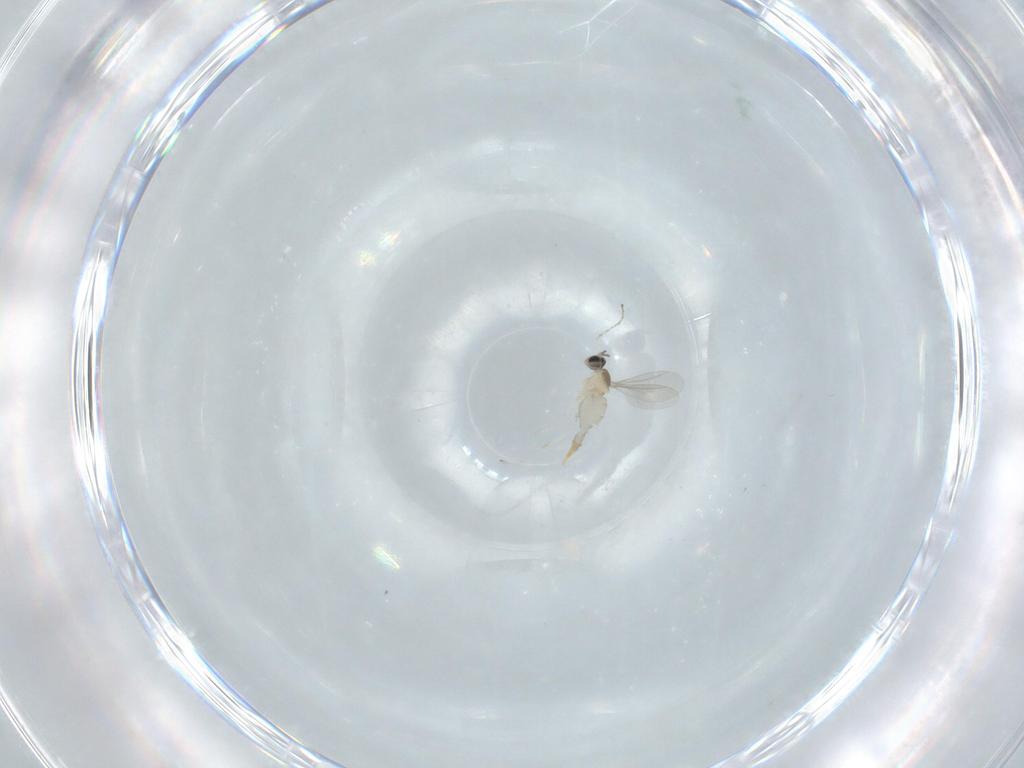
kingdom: Animalia
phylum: Arthropoda
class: Insecta
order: Diptera
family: Cecidomyiidae
